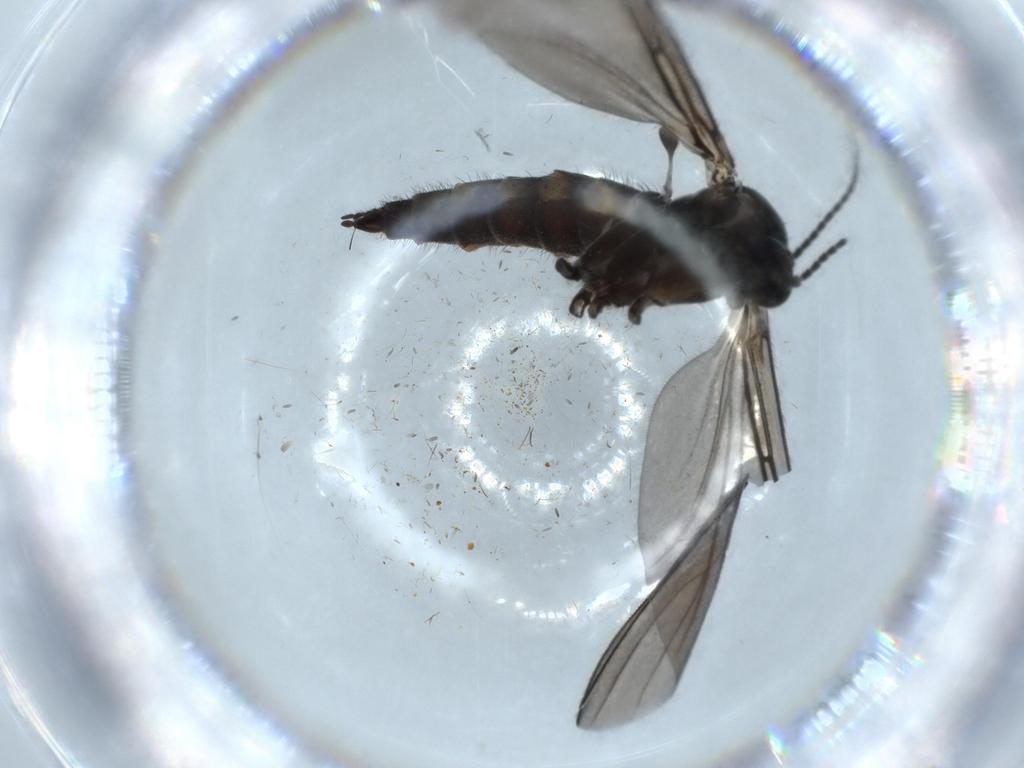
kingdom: Animalia
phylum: Arthropoda
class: Insecta
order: Diptera
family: Sciaridae
